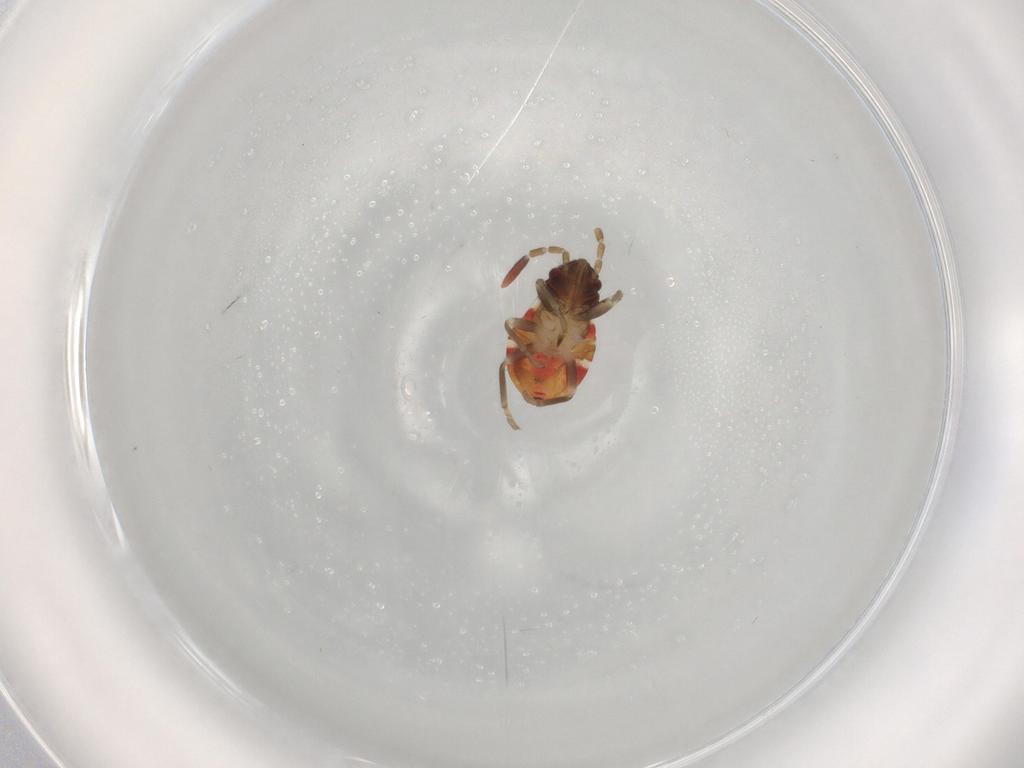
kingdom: Animalia
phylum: Arthropoda
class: Insecta
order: Hemiptera
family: Rhyparochromidae
